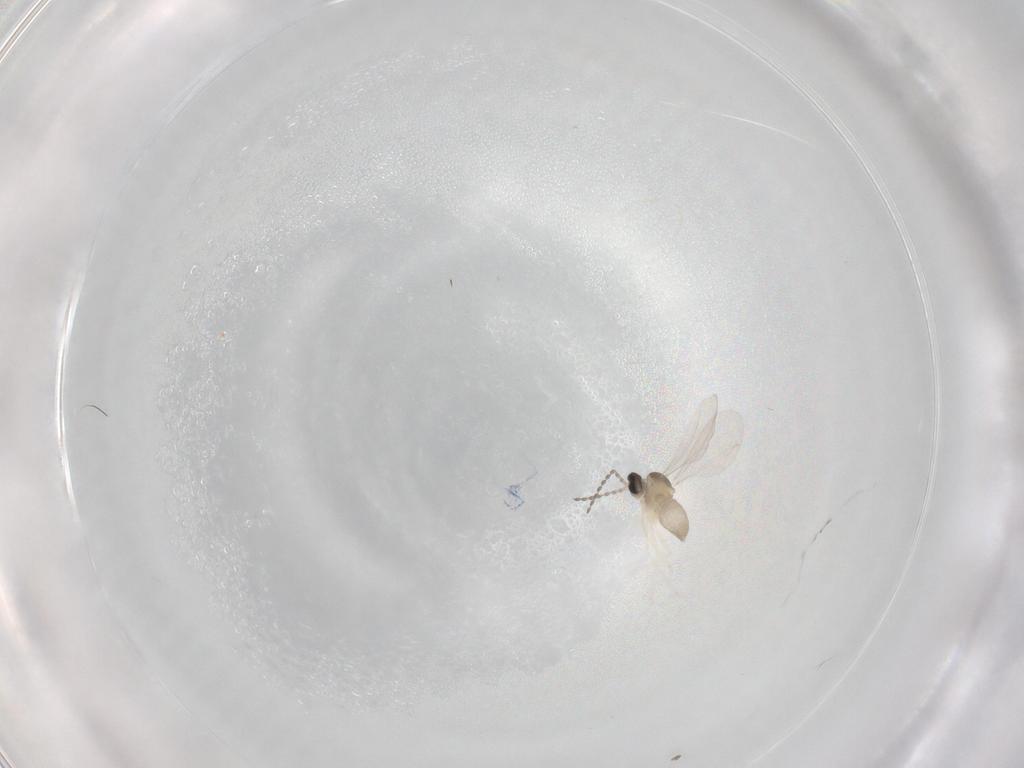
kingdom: Animalia
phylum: Arthropoda
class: Insecta
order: Diptera
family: Cecidomyiidae
